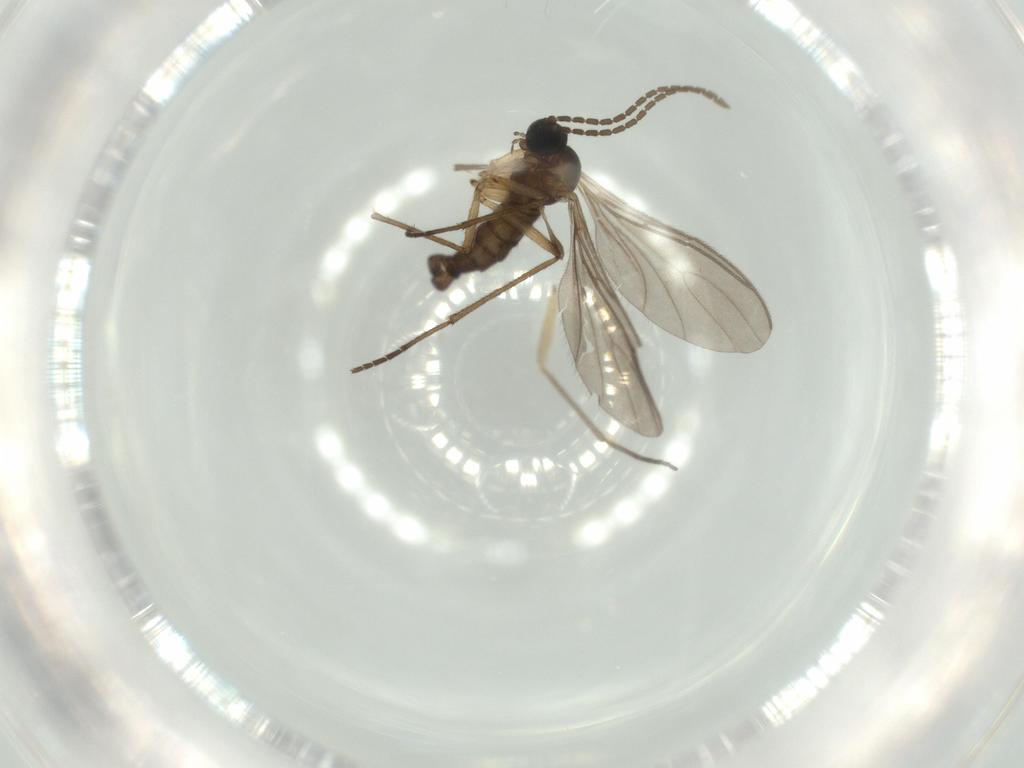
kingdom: Animalia
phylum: Arthropoda
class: Insecta
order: Diptera
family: Sciaridae
